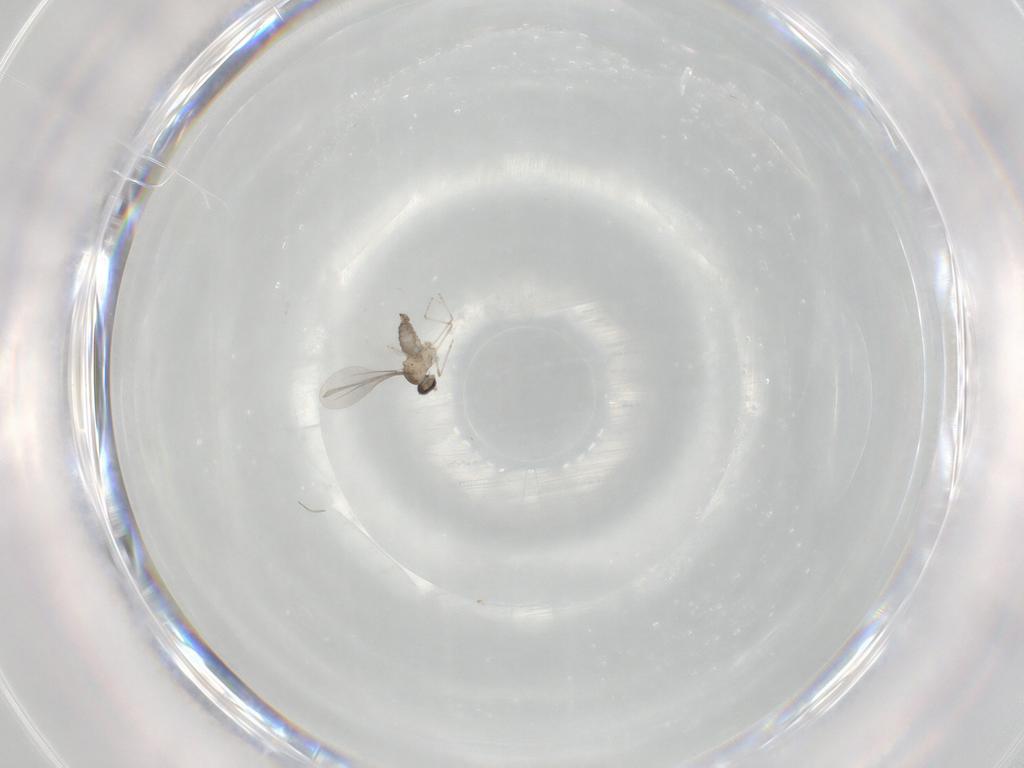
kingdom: Animalia
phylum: Arthropoda
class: Insecta
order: Diptera
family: Cecidomyiidae
